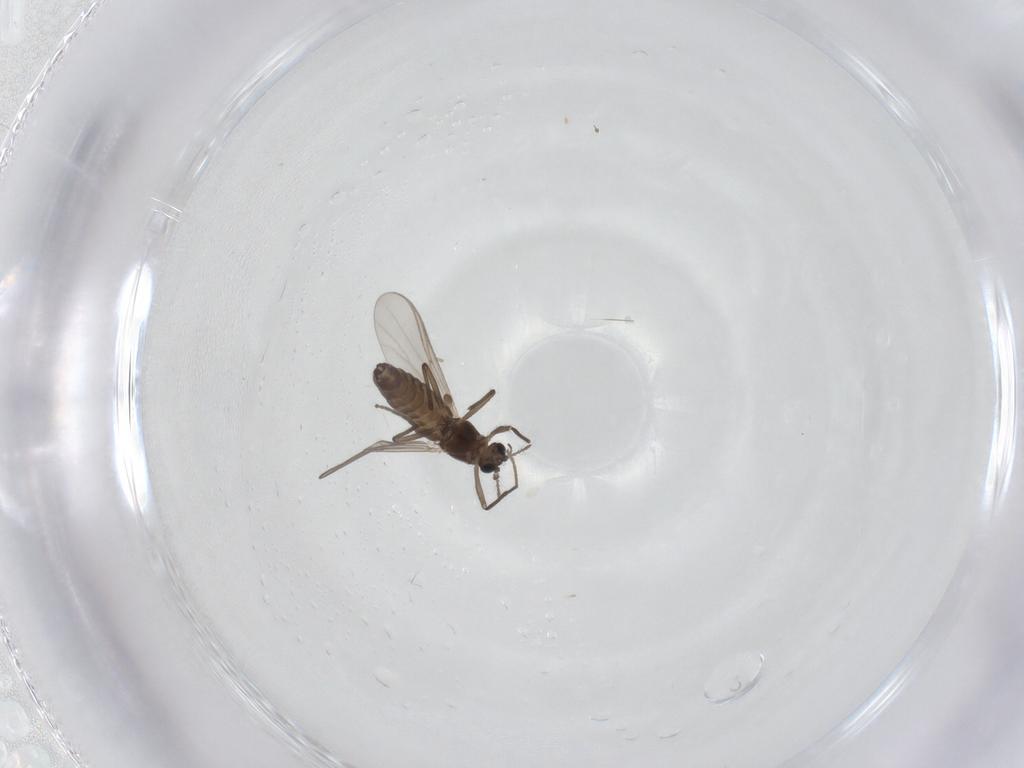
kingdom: Animalia
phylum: Arthropoda
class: Insecta
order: Diptera
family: Cecidomyiidae
